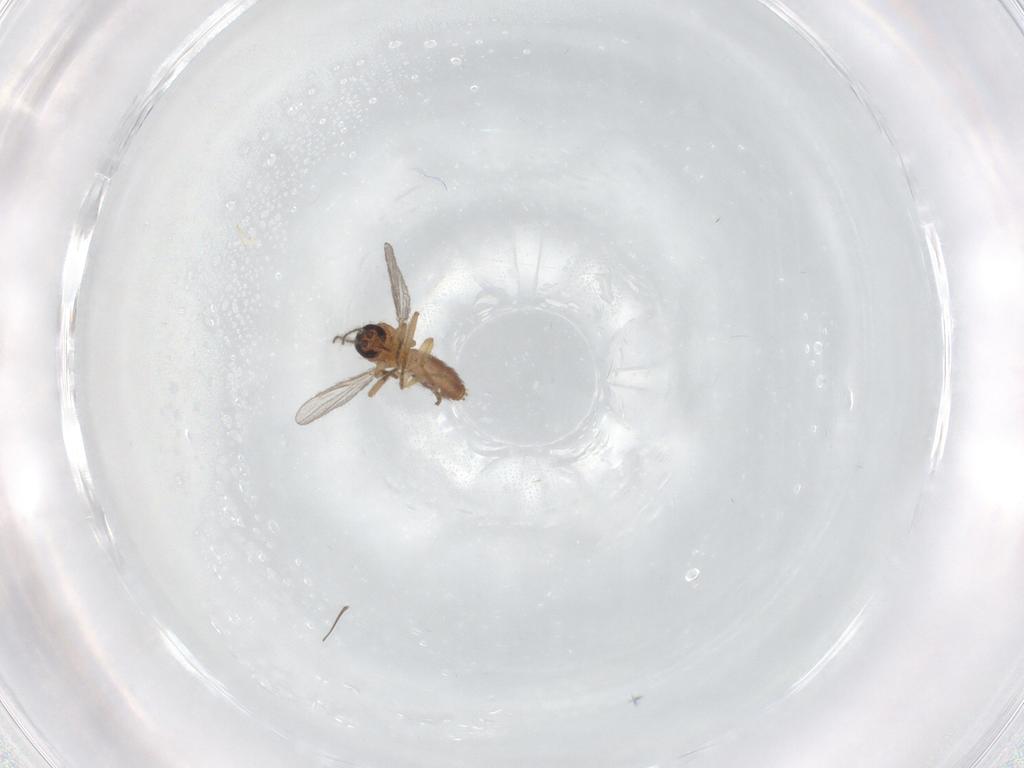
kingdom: Animalia
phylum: Arthropoda
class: Insecta
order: Diptera
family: Chironomidae
